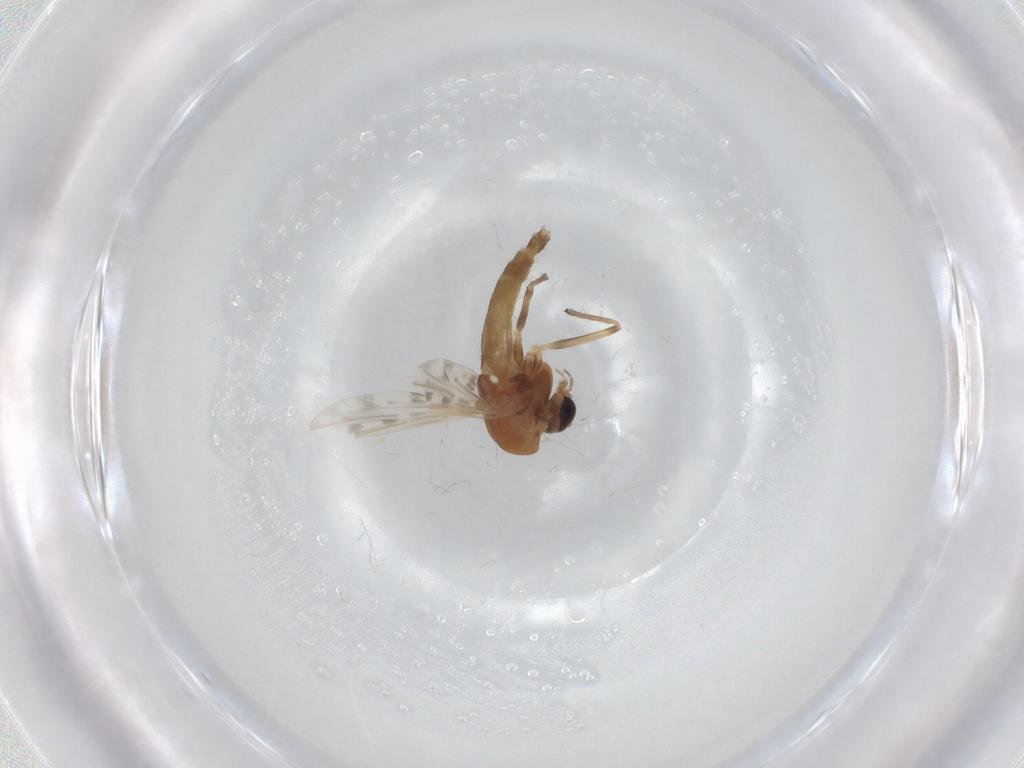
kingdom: Animalia
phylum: Arthropoda
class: Insecta
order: Diptera
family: Chironomidae
